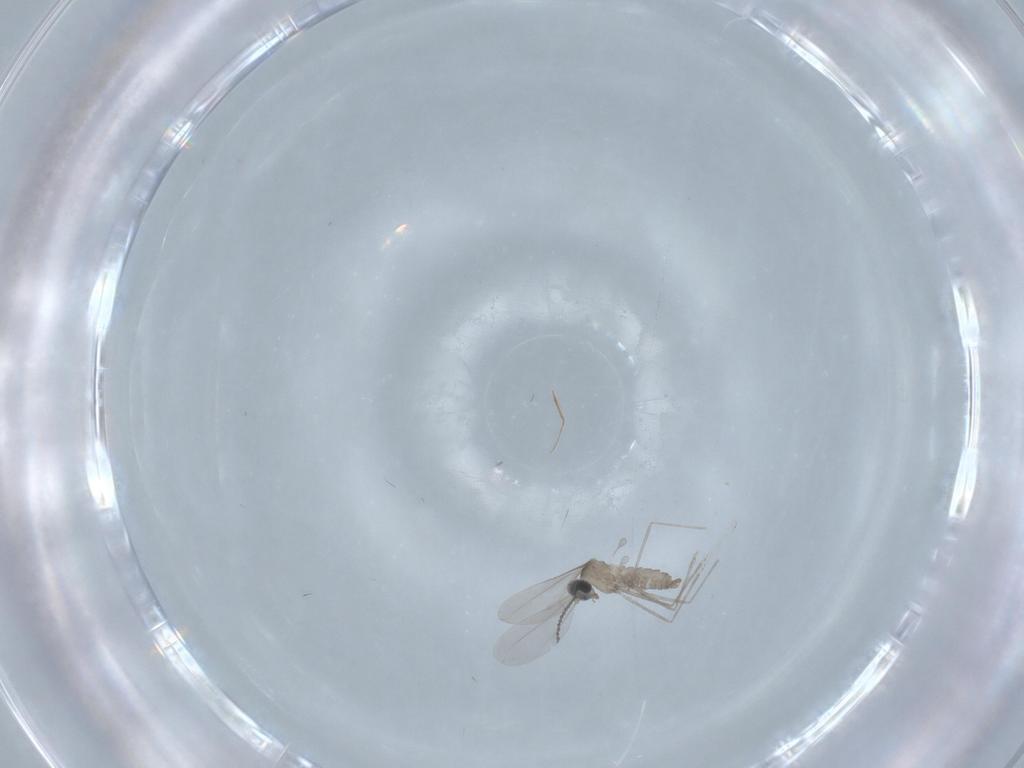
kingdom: Animalia
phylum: Arthropoda
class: Insecta
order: Diptera
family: Cecidomyiidae
